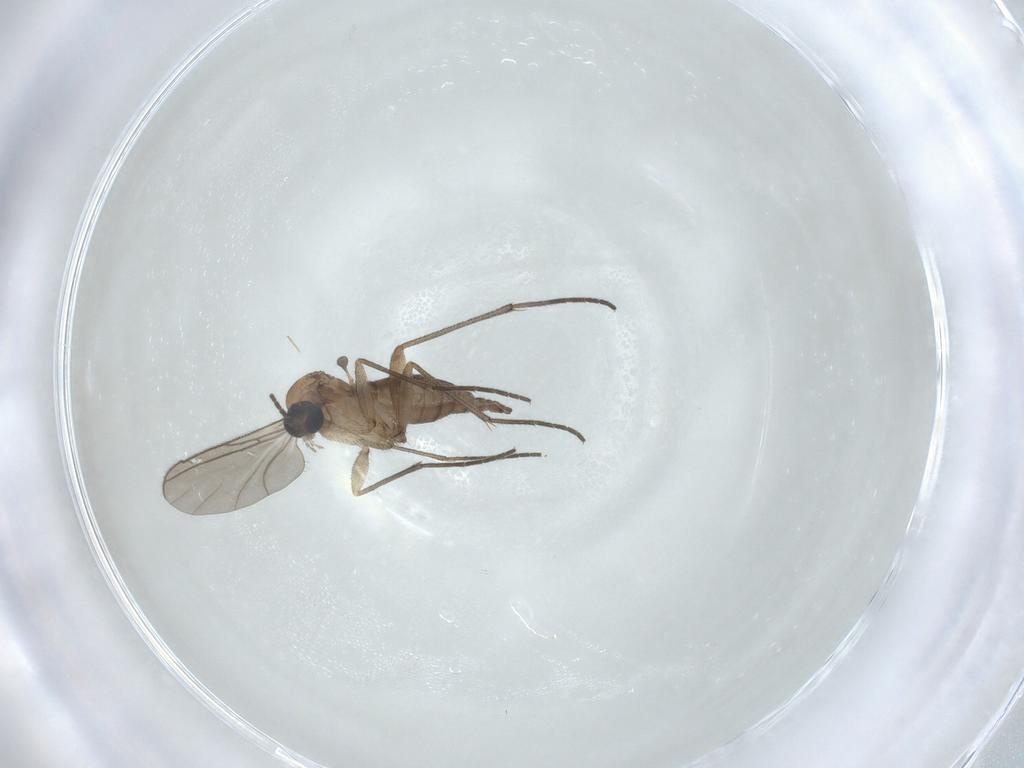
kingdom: Animalia
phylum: Arthropoda
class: Insecta
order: Diptera
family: Sciaridae
